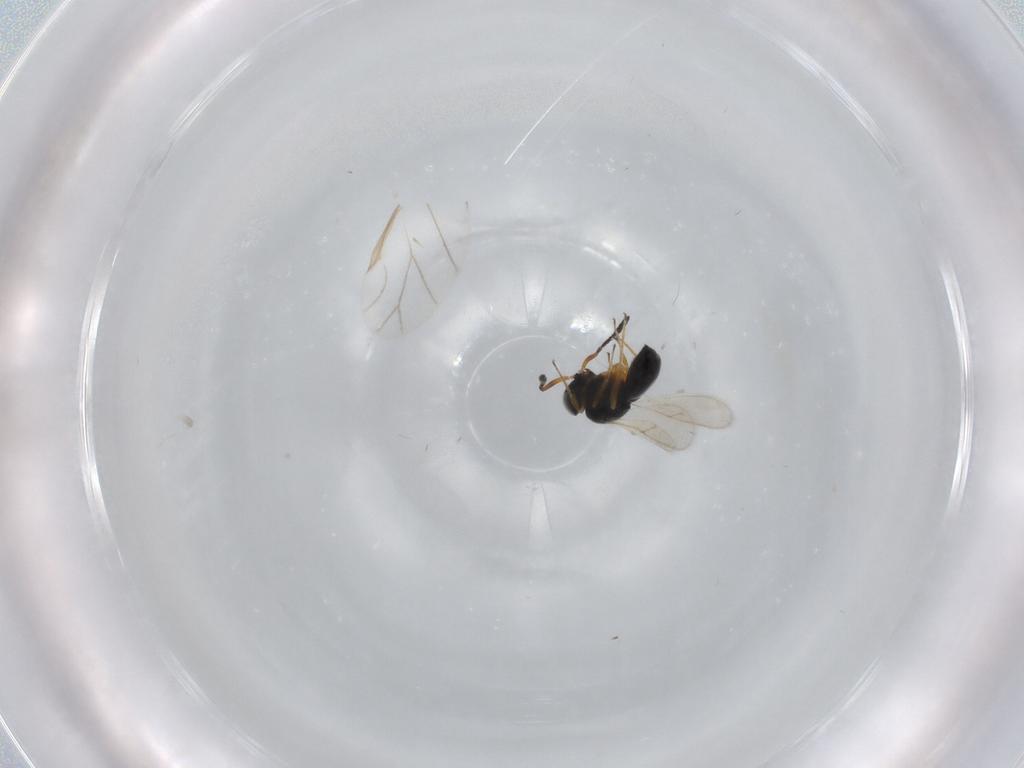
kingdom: Animalia
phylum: Arthropoda
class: Insecta
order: Hymenoptera
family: Scelionidae
